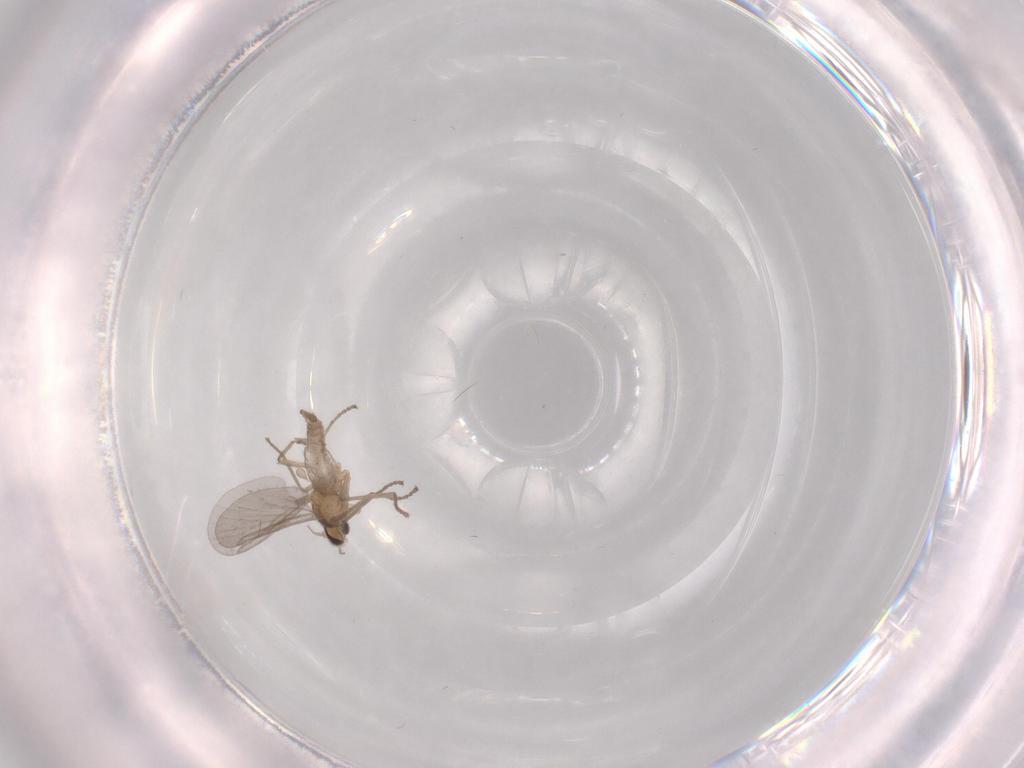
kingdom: Animalia
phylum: Arthropoda
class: Insecta
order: Diptera
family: Cecidomyiidae
